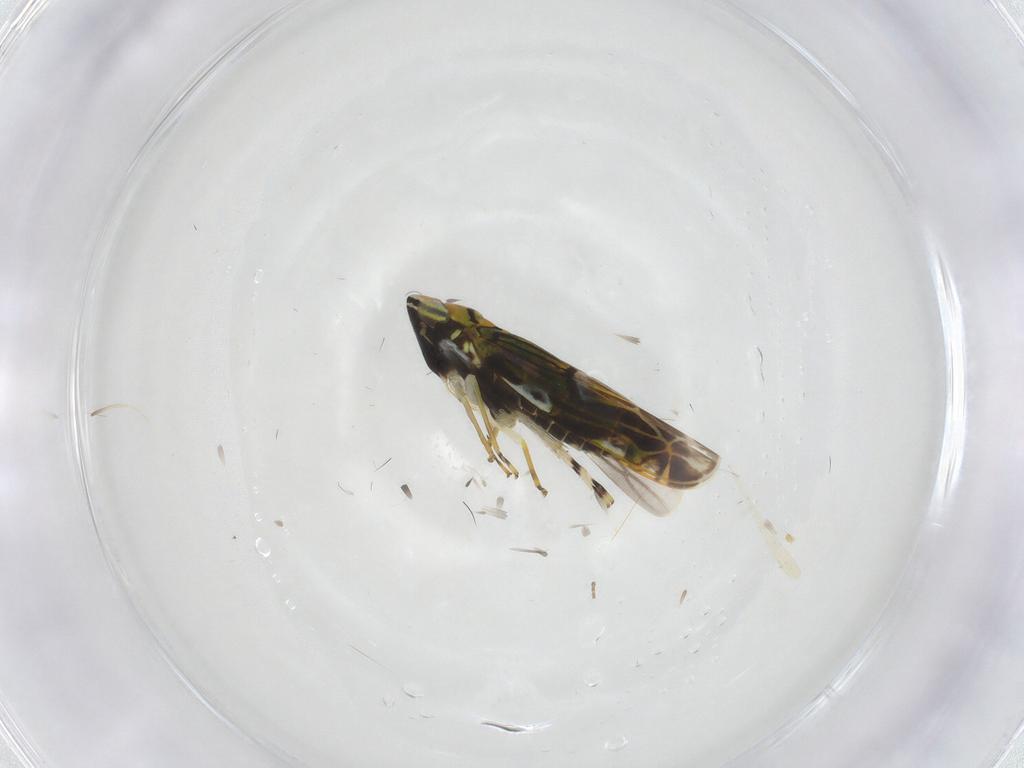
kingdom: Animalia
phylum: Arthropoda
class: Insecta
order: Hemiptera
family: Cicadellidae
